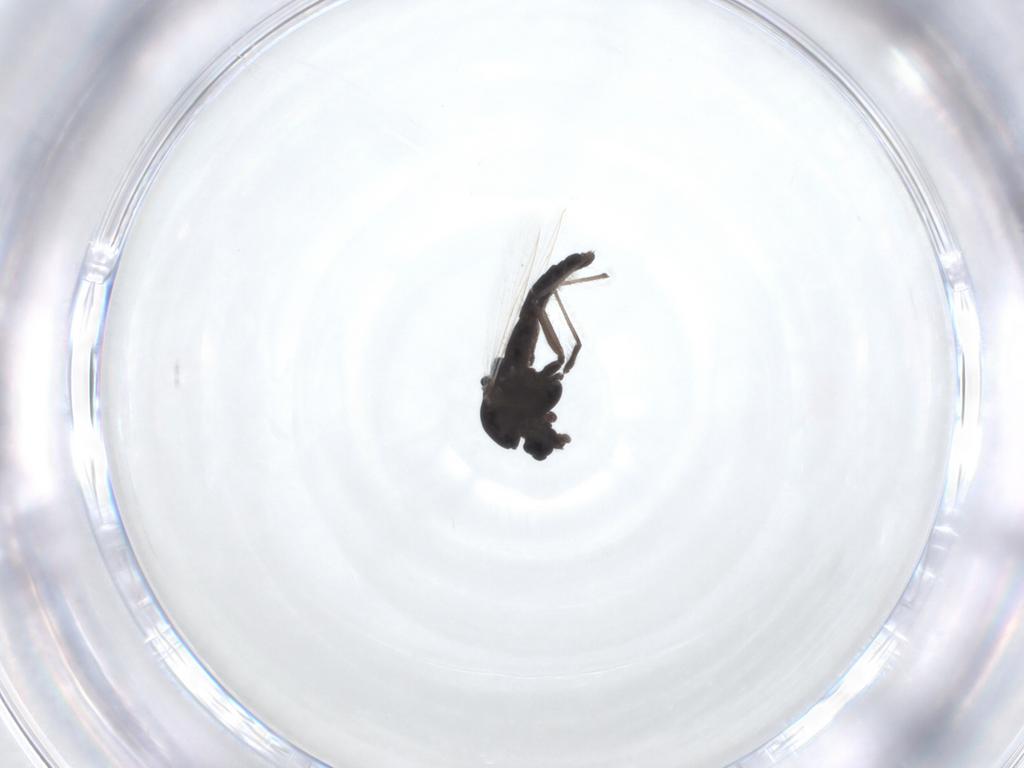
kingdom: Animalia
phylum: Arthropoda
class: Insecta
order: Diptera
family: Chironomidae
